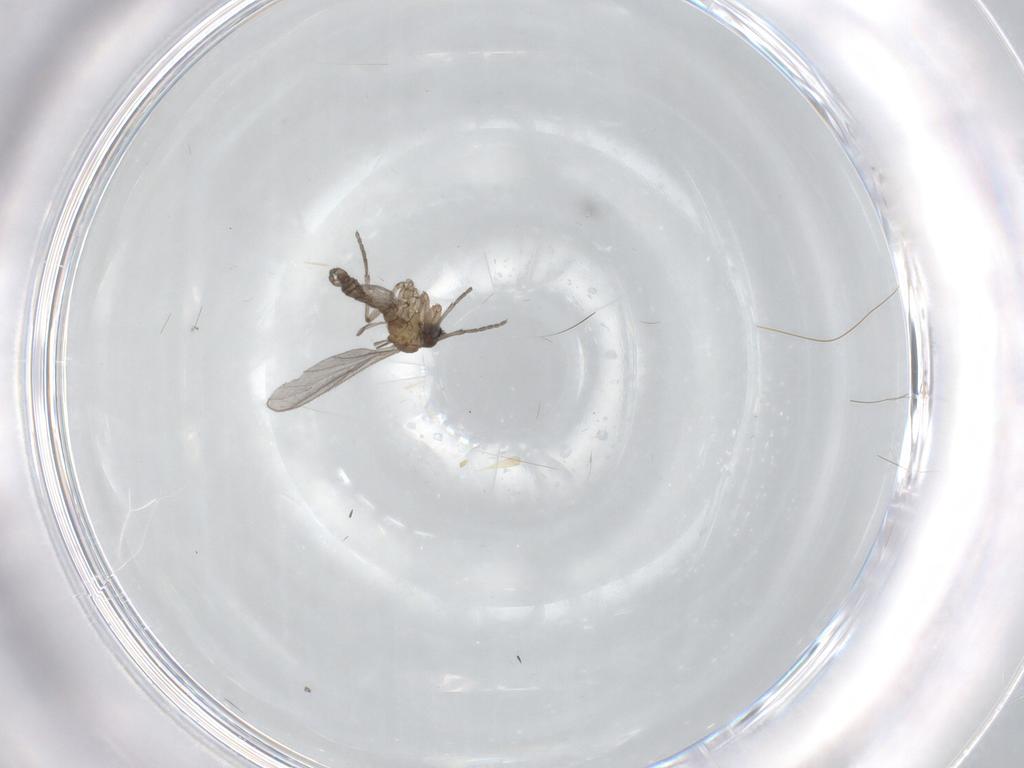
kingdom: Animalia
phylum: Arthropoda
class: Insecta
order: Diptera
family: Sciaridae
